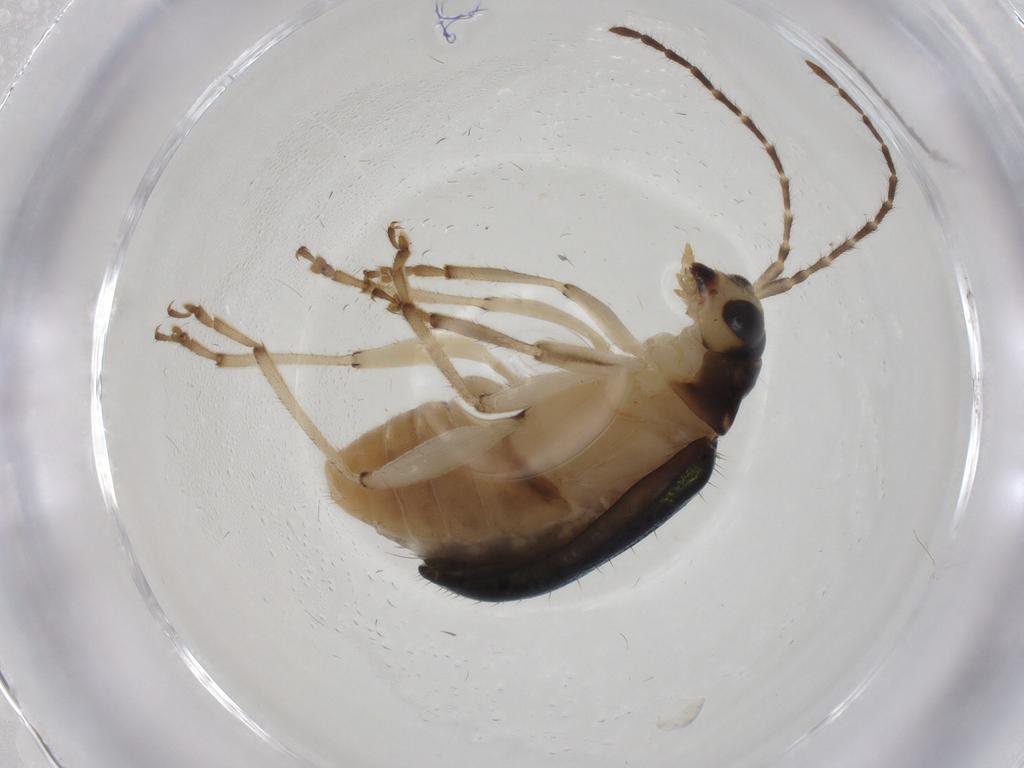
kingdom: Animalia
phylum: Arthropoda
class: Insecta
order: Coleoptera
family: Chrysomelidae
